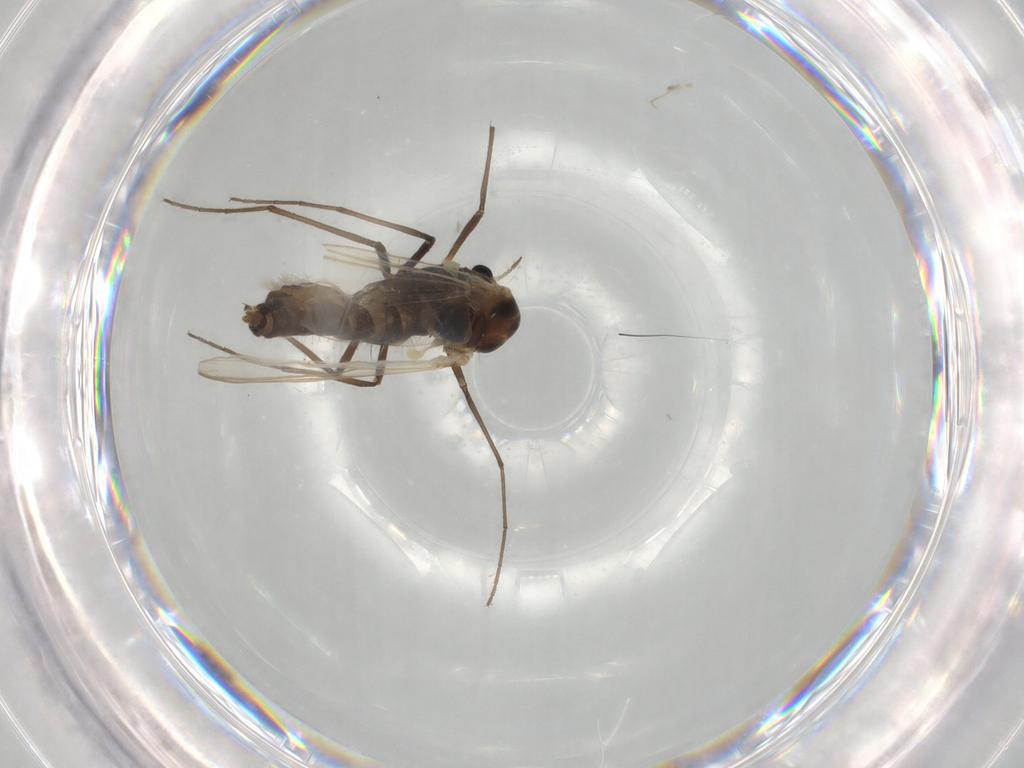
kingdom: Animalia
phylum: Arthropoda
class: Insecta
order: Diptera
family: Chironomidae
